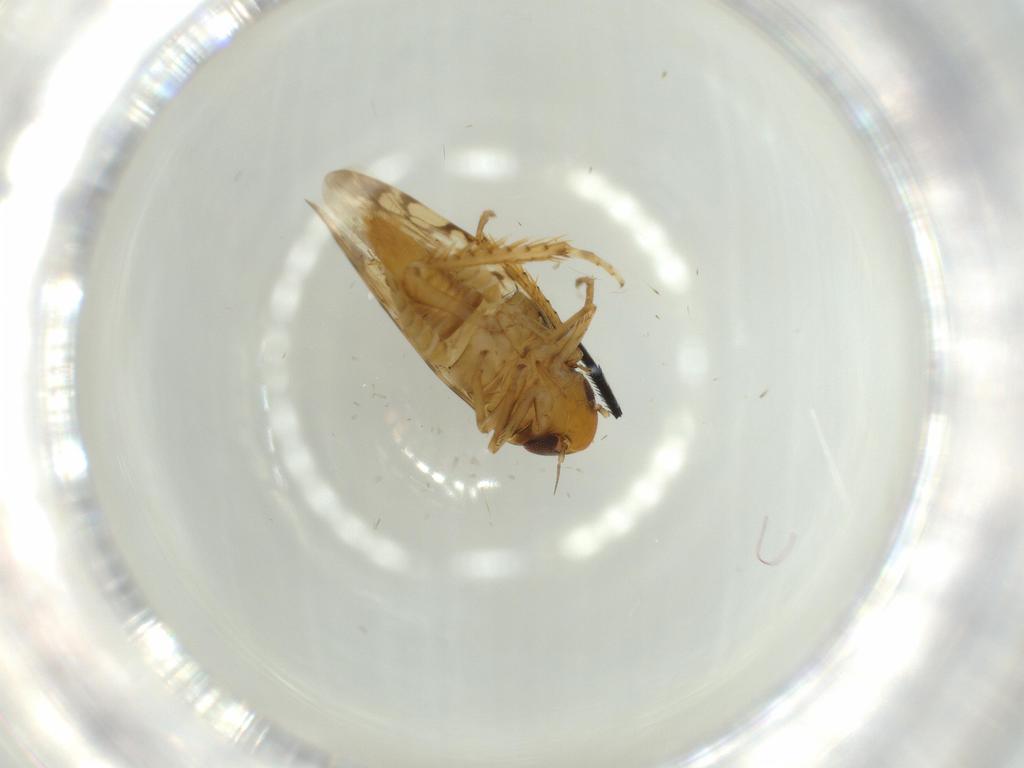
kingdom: Animalia
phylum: Arthropoda
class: Insecta
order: Hemiptera
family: Cicadellidae
